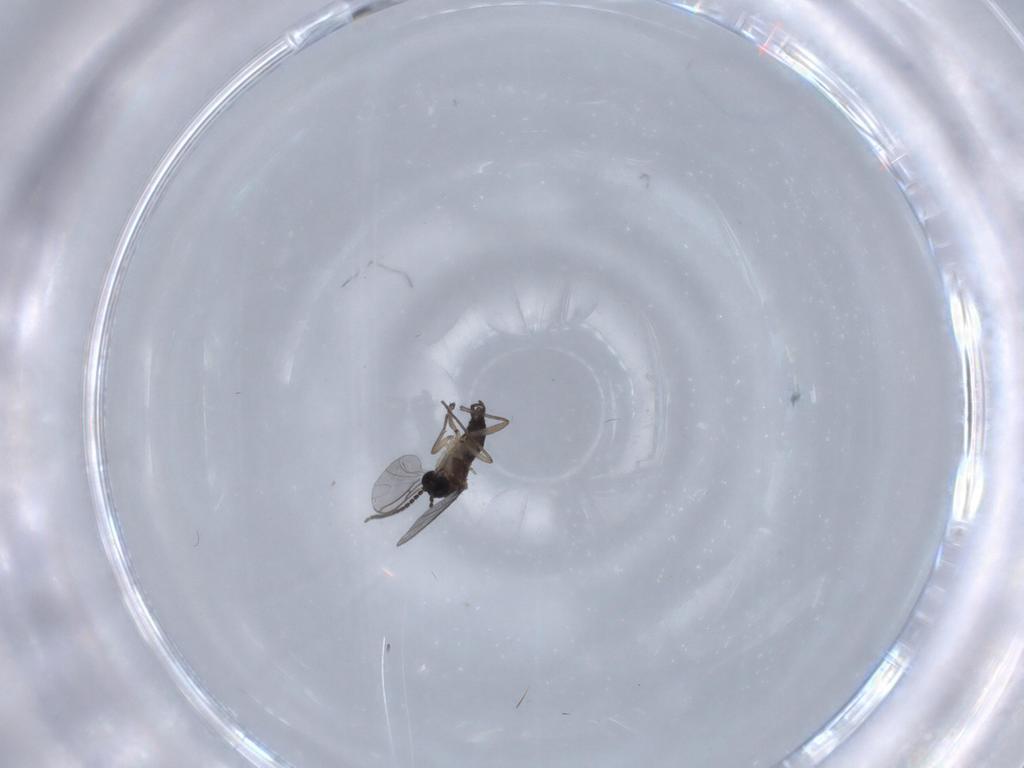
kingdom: Animalia
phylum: Arthropoda
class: Insecta
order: Diptera
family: Sciaridae
